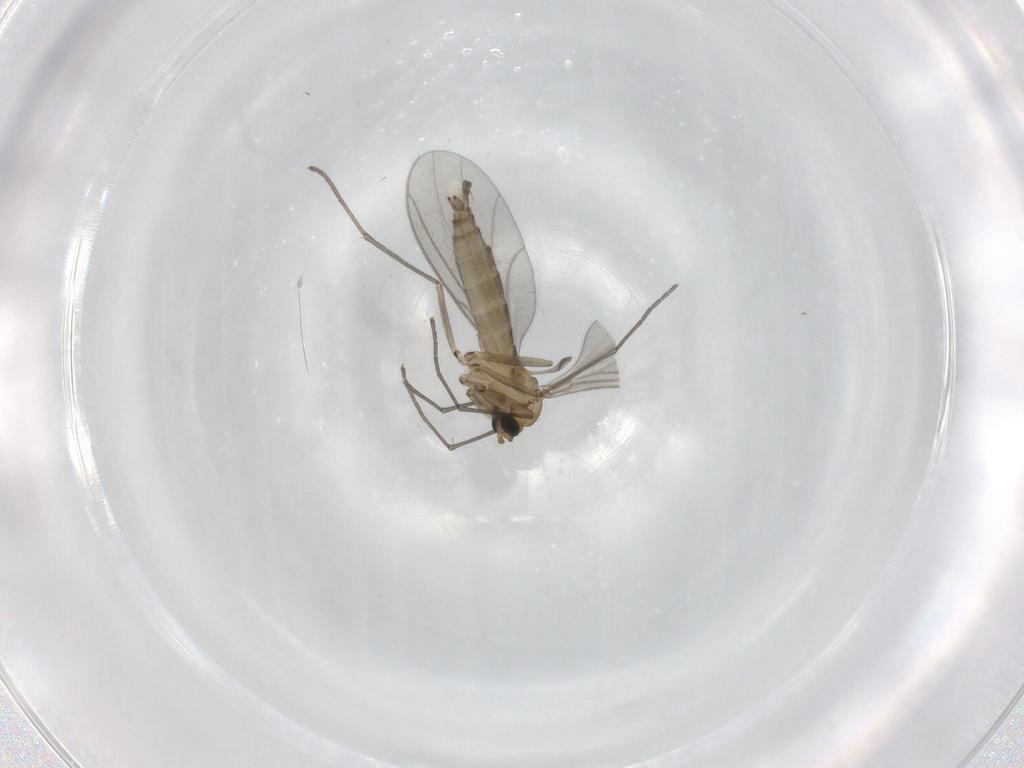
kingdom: Animalia
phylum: Arthropoda
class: Insecta
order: Diptera
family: Sciaridae
